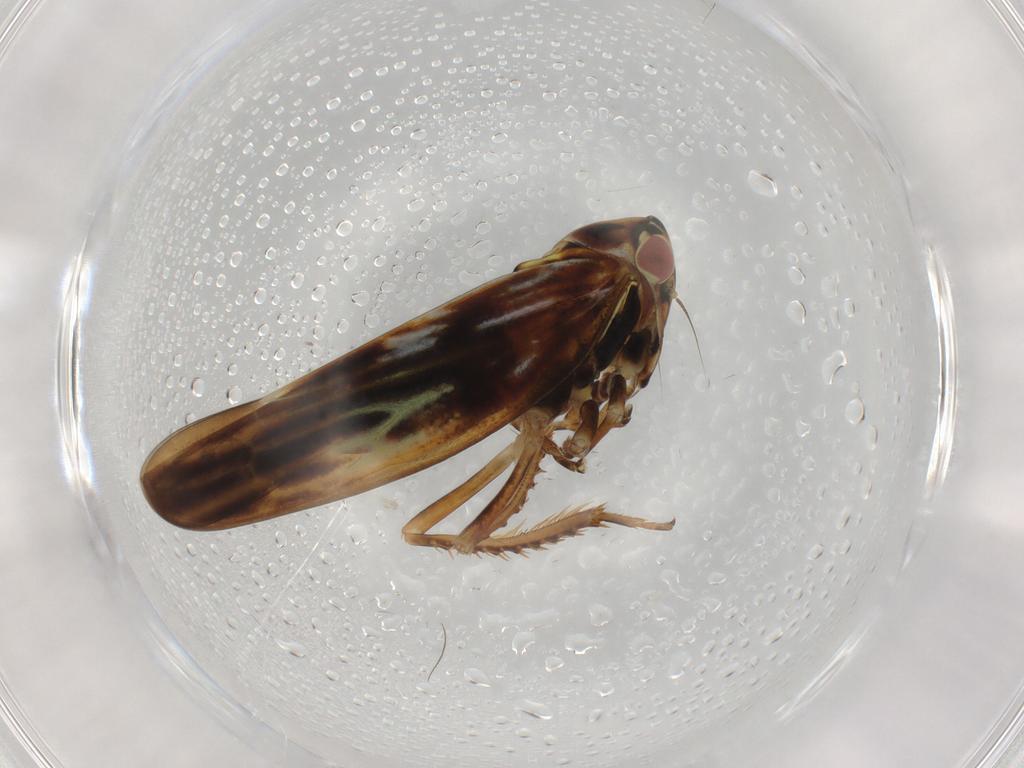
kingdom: Animalia
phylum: Arthropoda
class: Insecta
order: Hemiptera
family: Cicadellidae
